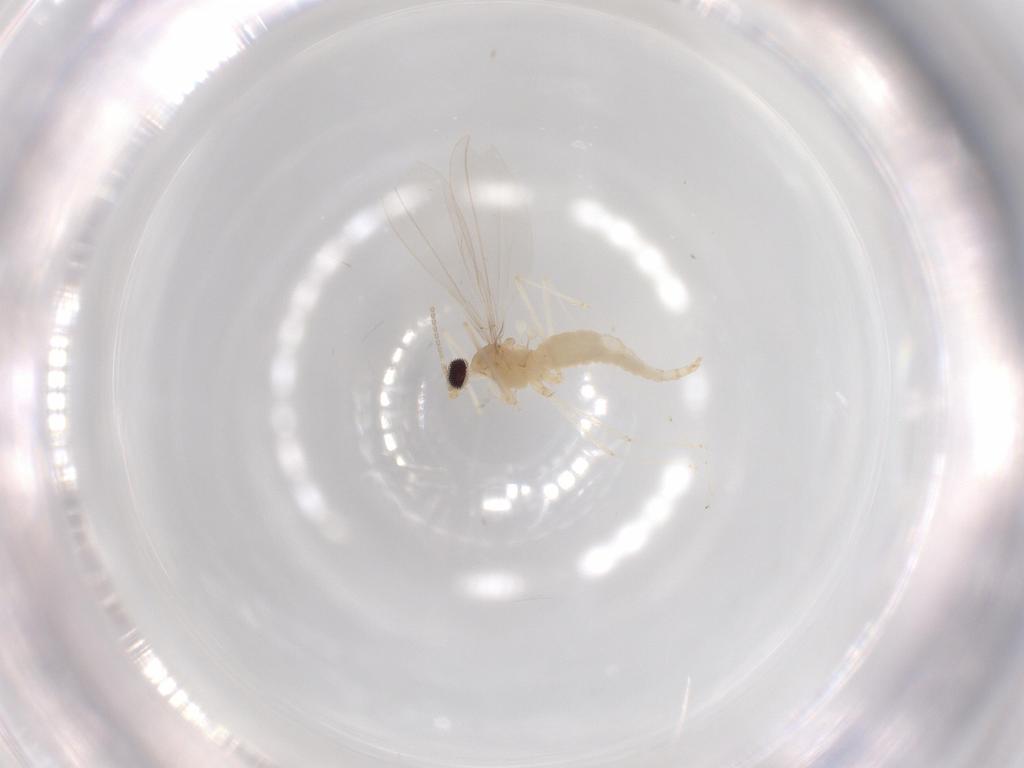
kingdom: Animalia
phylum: Arthropoda
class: Insecta
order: Diptera
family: Cecidomyiidae
